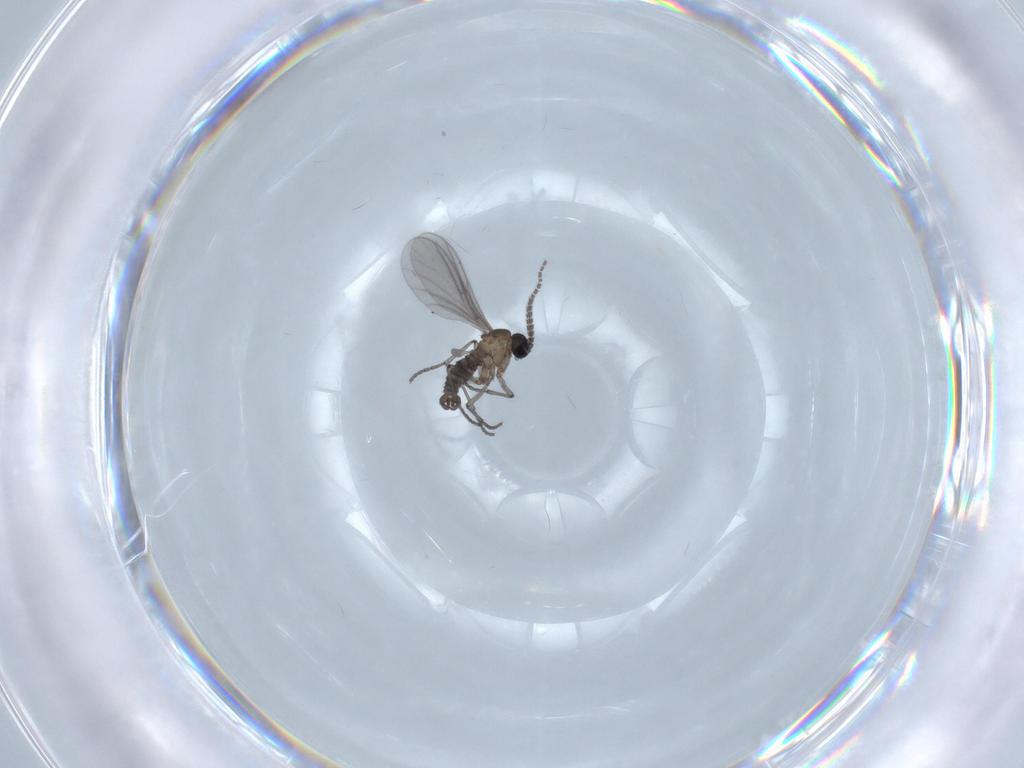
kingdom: Animalia
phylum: Arthropoda
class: Insecta
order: Diptera
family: Sciaridae
